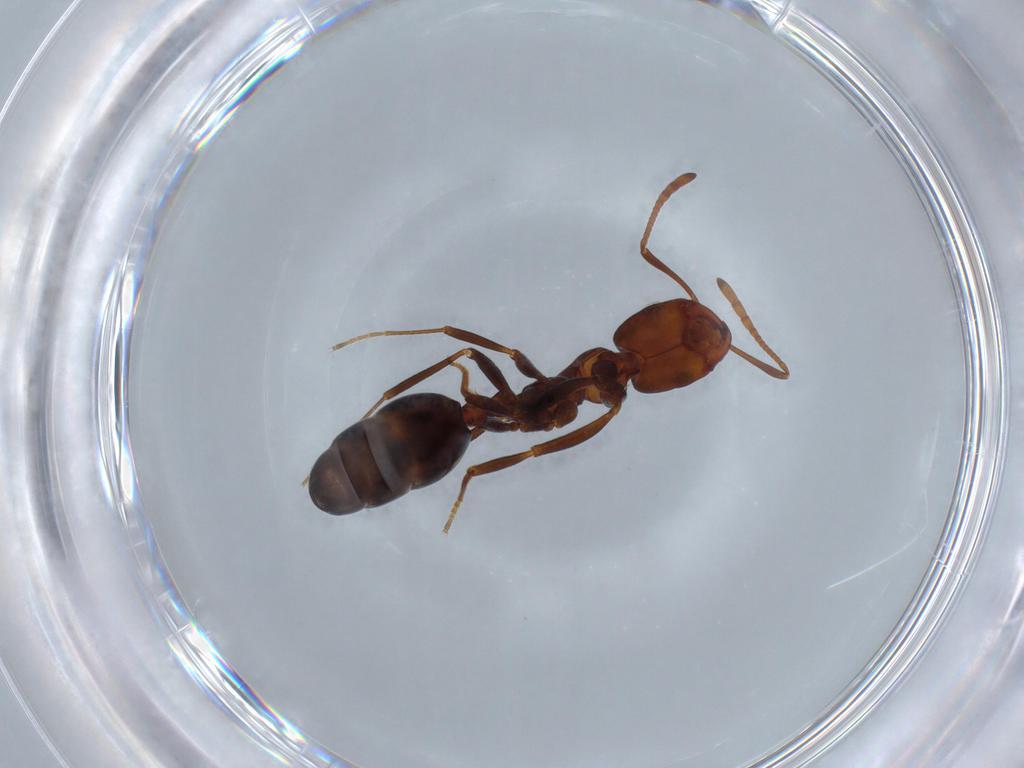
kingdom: Animalia
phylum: Arthropoda
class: Insecta
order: Hymenoptera
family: Formicidae
